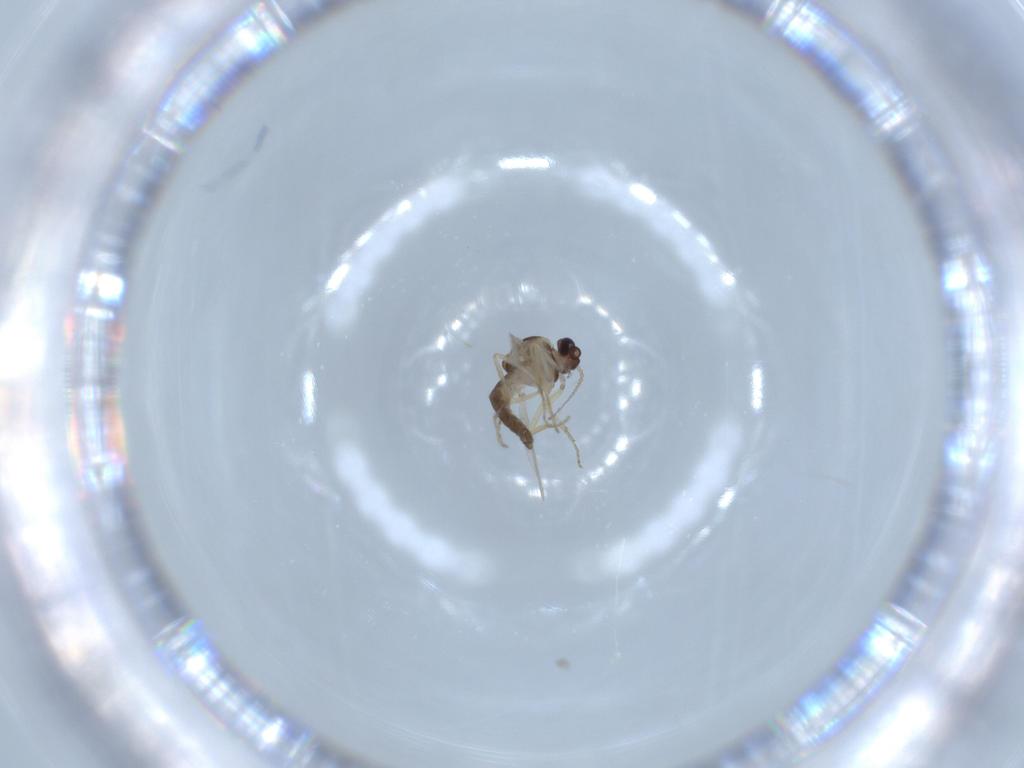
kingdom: Animalia
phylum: Arthropoda
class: Insecta
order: Diptera
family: Ceratopogonidae
